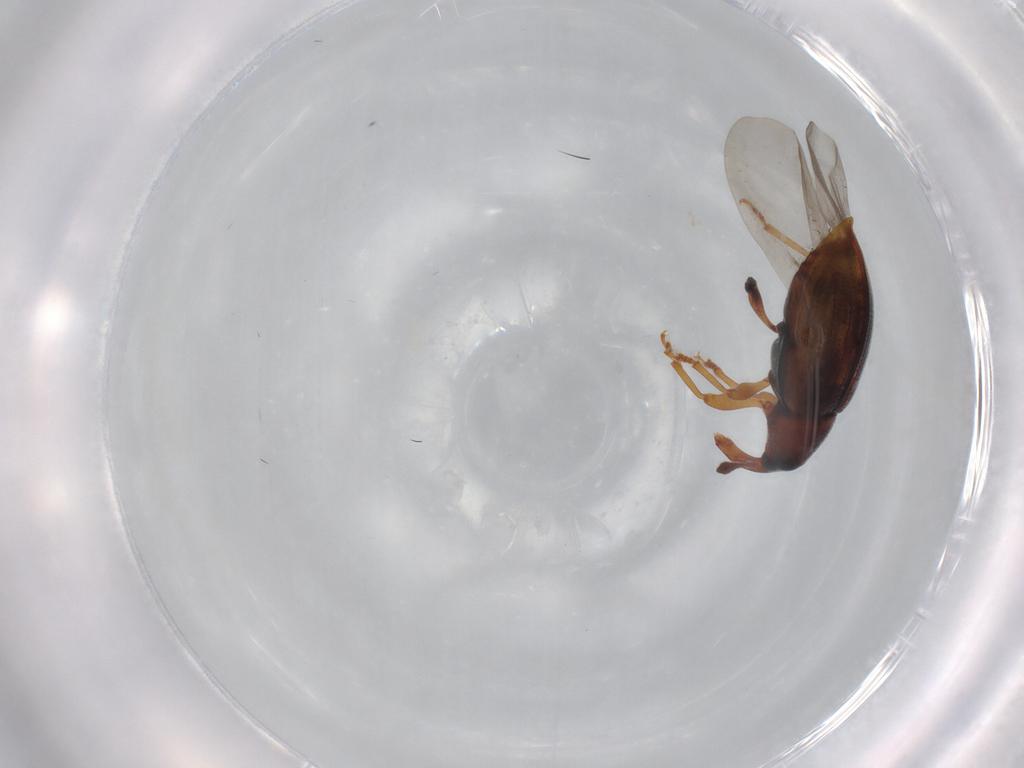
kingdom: Animalia
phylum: Arthropoda
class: Insecta
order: Coleoptera
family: Curculionidae
